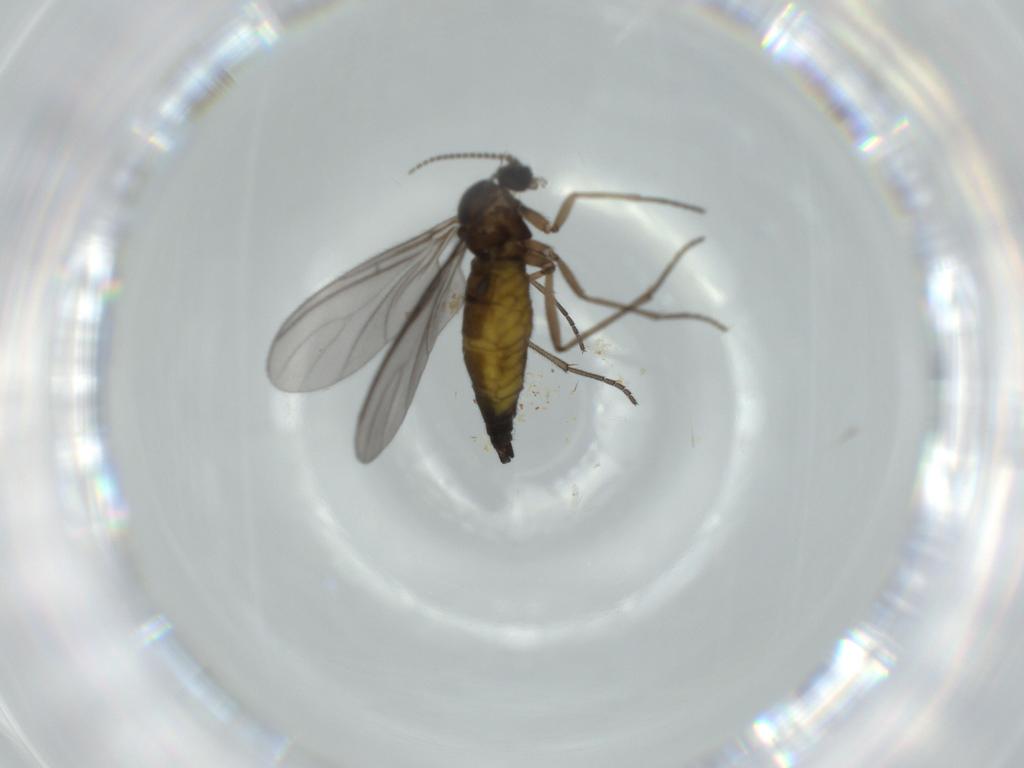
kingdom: Animalia
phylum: Arthropoda
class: Insecta
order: Diptera
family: Sciaridae
